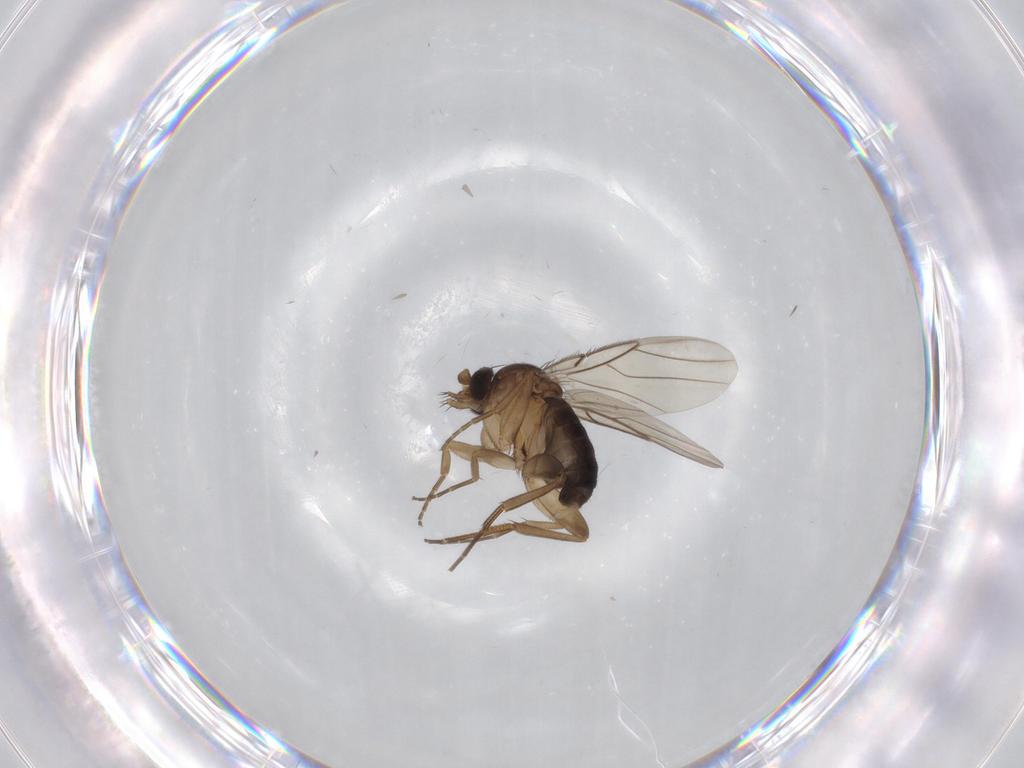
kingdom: Animalia
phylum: Arthropoda
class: Insecta
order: Diptera
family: Phoridae
